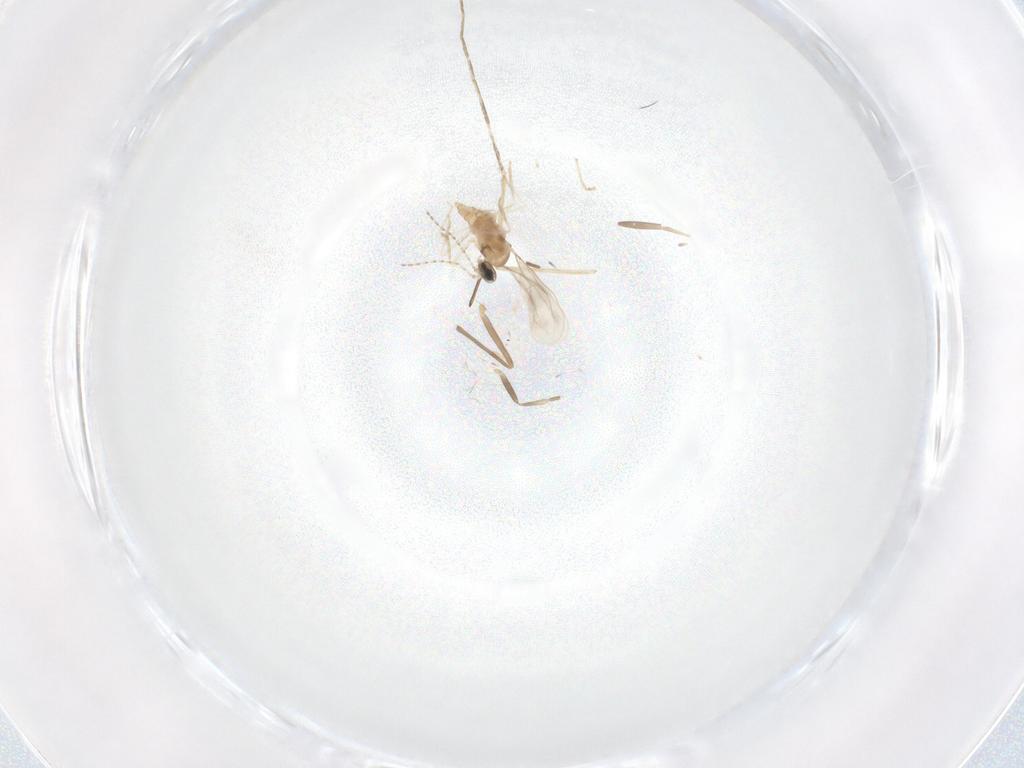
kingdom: Animalia
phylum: Arthropoda
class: Insecta
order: Diptera
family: Chironomidae
